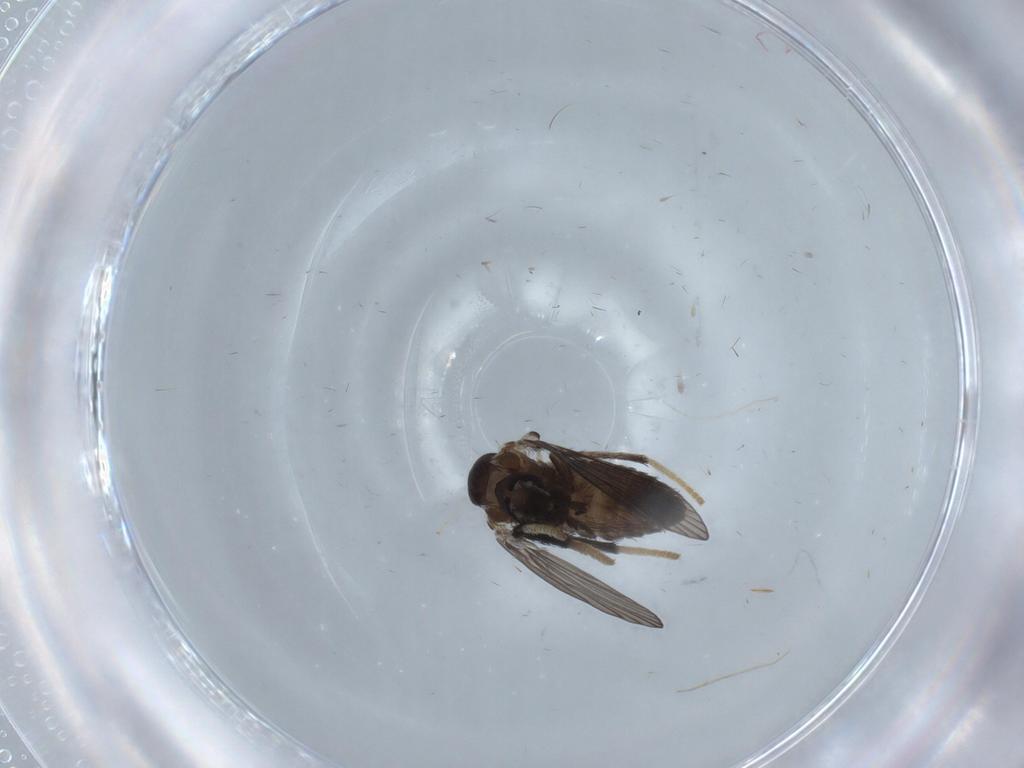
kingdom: Animalia
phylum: Arthropoda
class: Insecta
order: Diptera
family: Psychodidae
